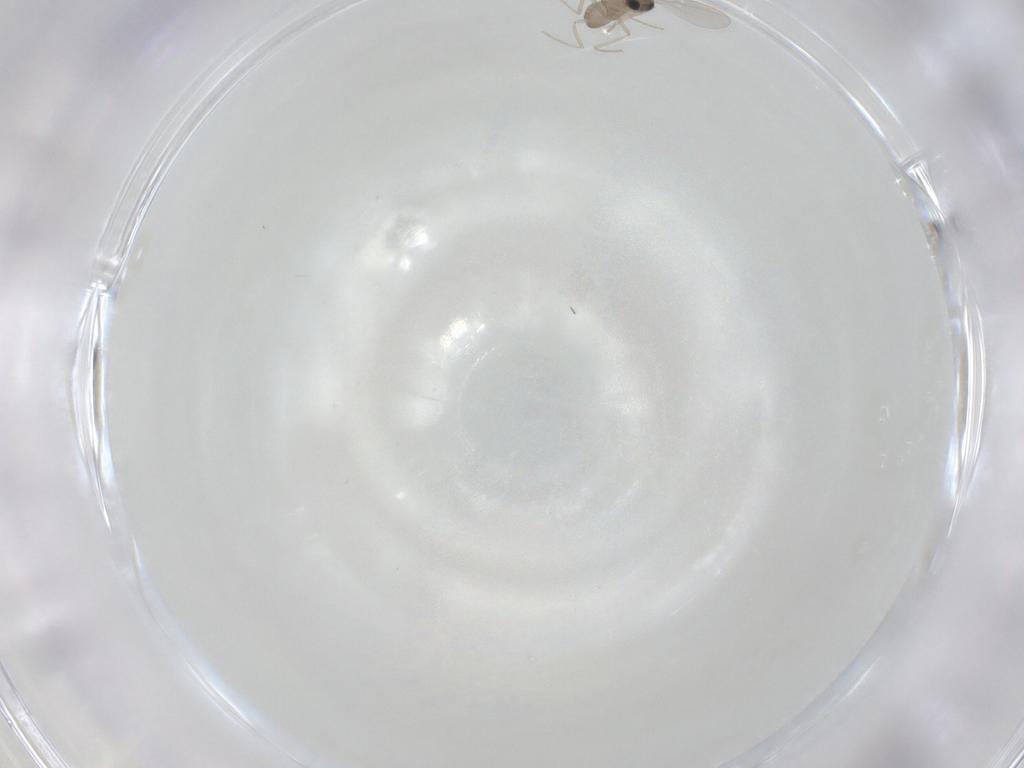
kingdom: Animalia
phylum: Arthropoda
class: Insecta
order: Diptera
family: Cecidomyiidae
